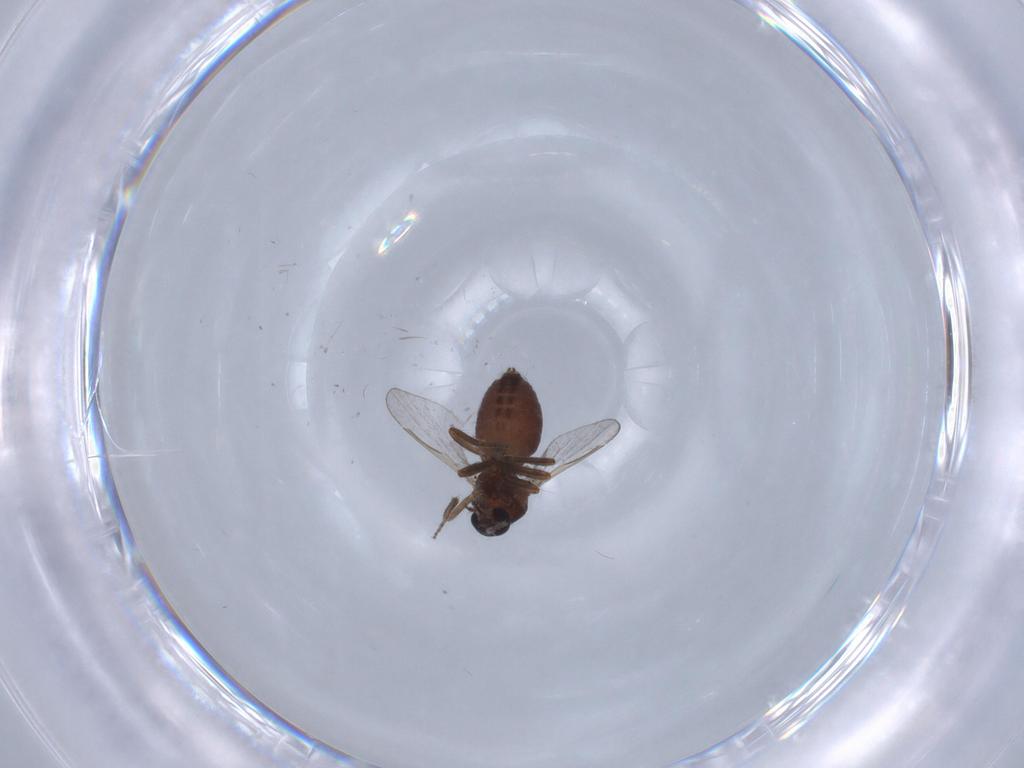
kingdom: Animalia
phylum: Arthropoda
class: Insecta
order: Diptera
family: Ceratopogonidae
